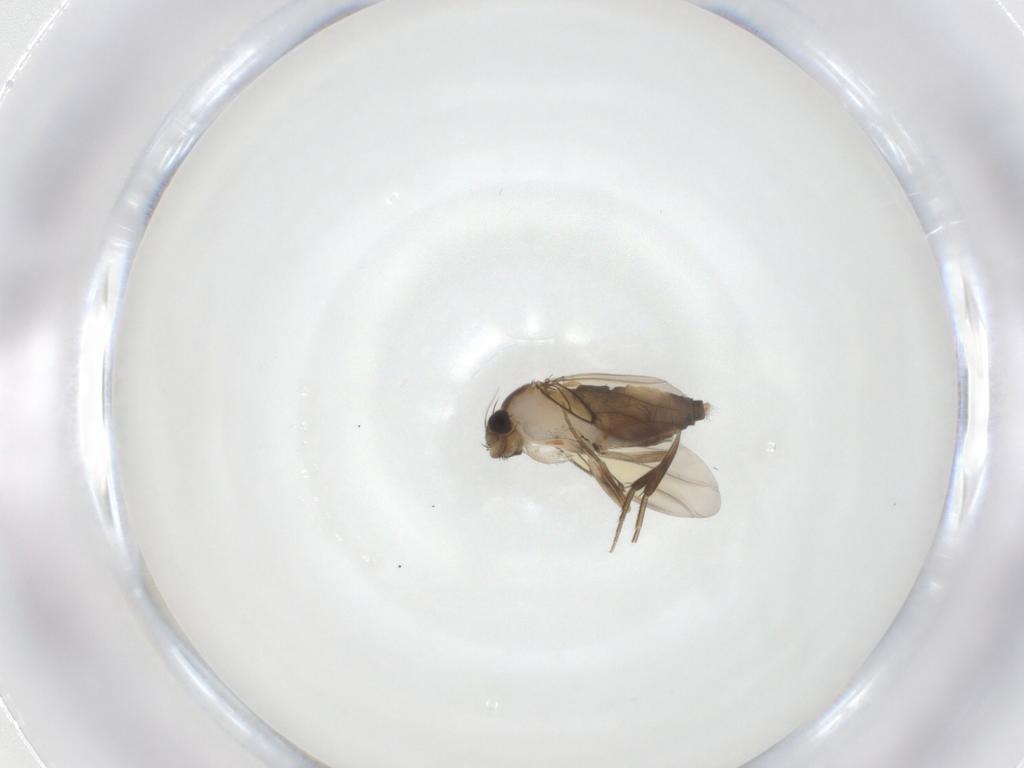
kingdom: Animalia
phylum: Arthropoda
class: Insecta
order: Diptera
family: Phoridae
